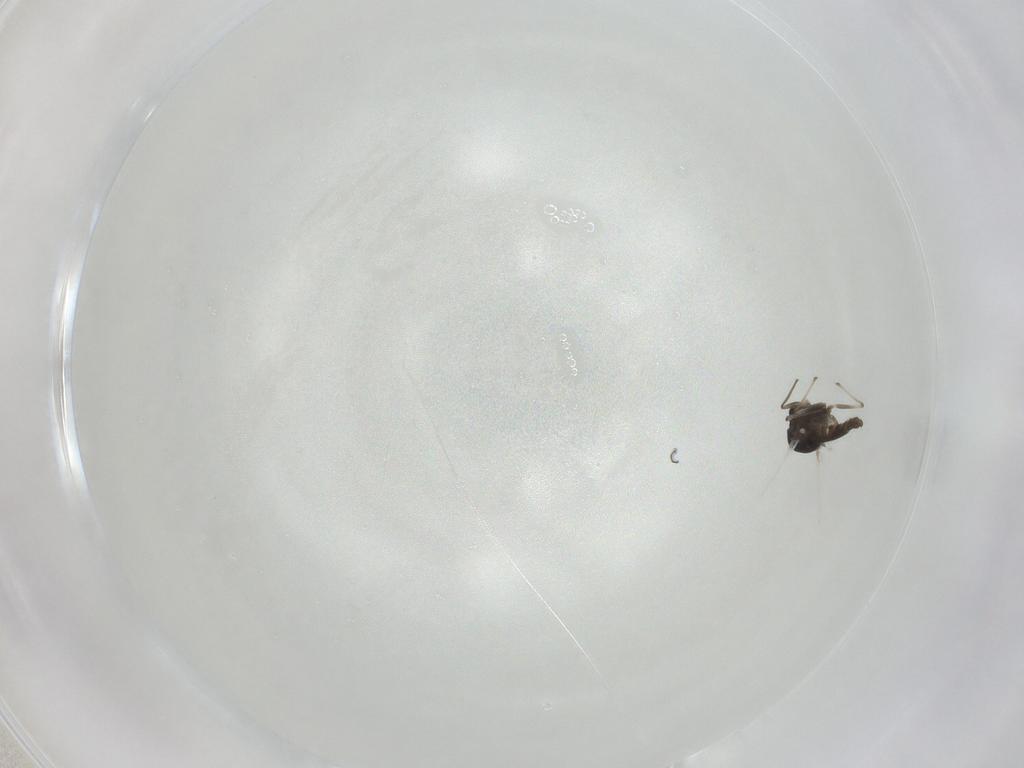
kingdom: Animalia
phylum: Arthropoda
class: Insecta
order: Diptera
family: Chironomidae
